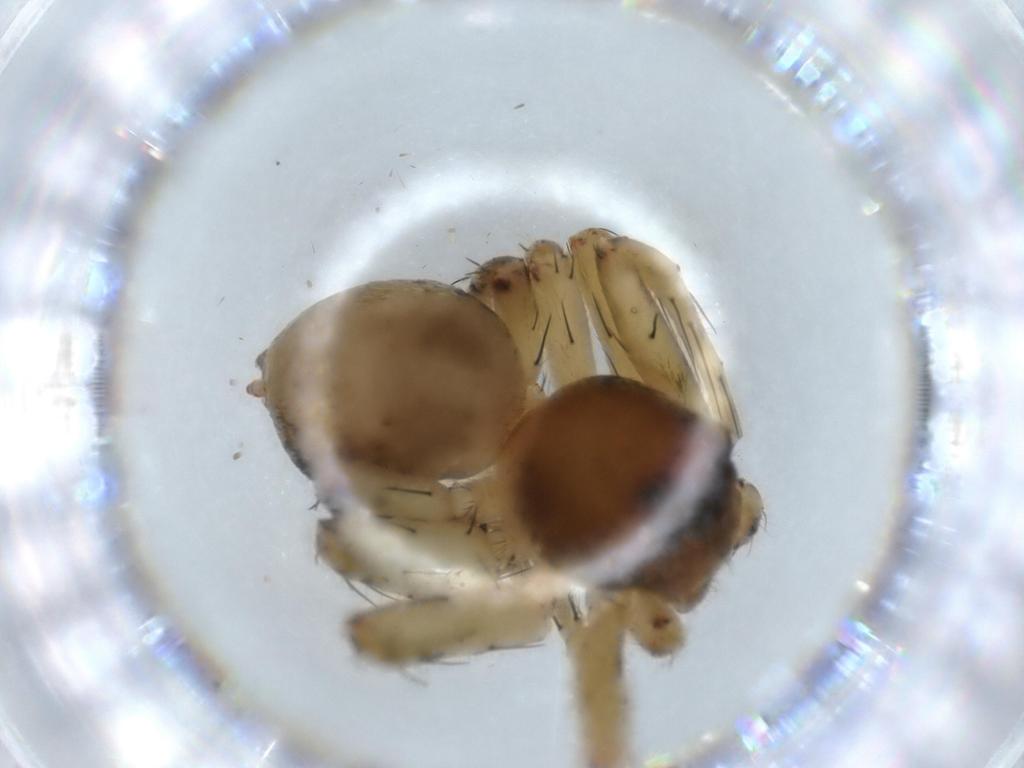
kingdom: Animalia
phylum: Arthropoda
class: Arachnida
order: Araneae
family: Oxyopidae
